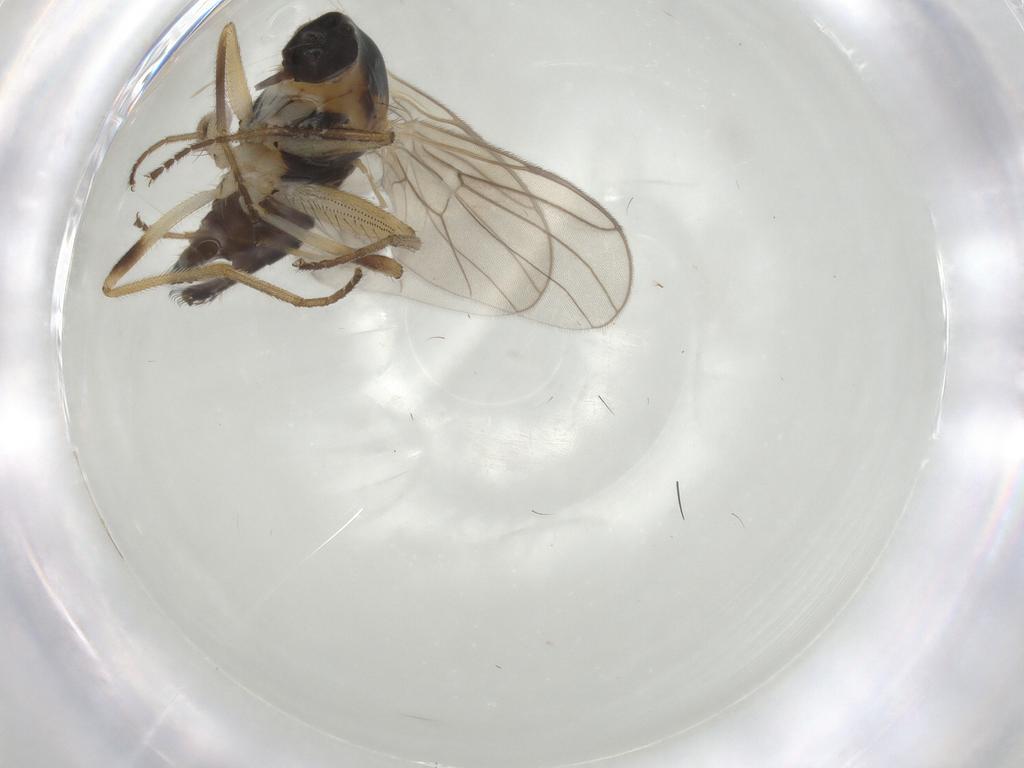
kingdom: Animalia
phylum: Arthropoda
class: Insecta
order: Diptera
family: Hybotidae
